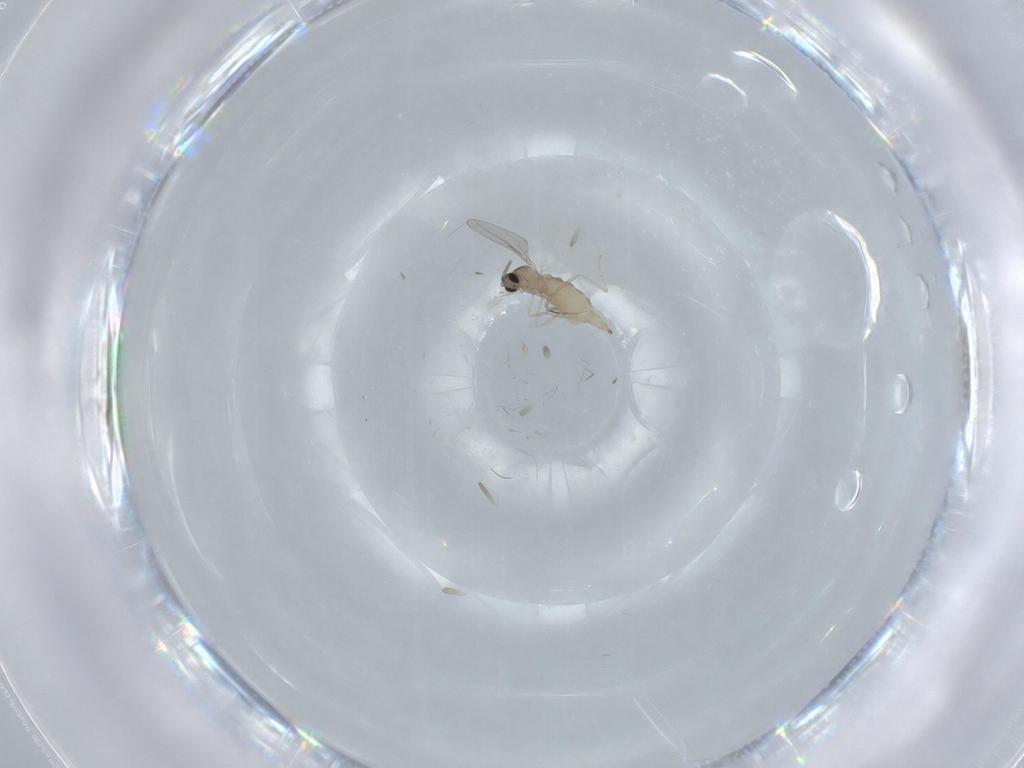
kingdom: Animalia
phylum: Arthropoda
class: Insecta
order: Diptera
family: Cecidomyiidae
